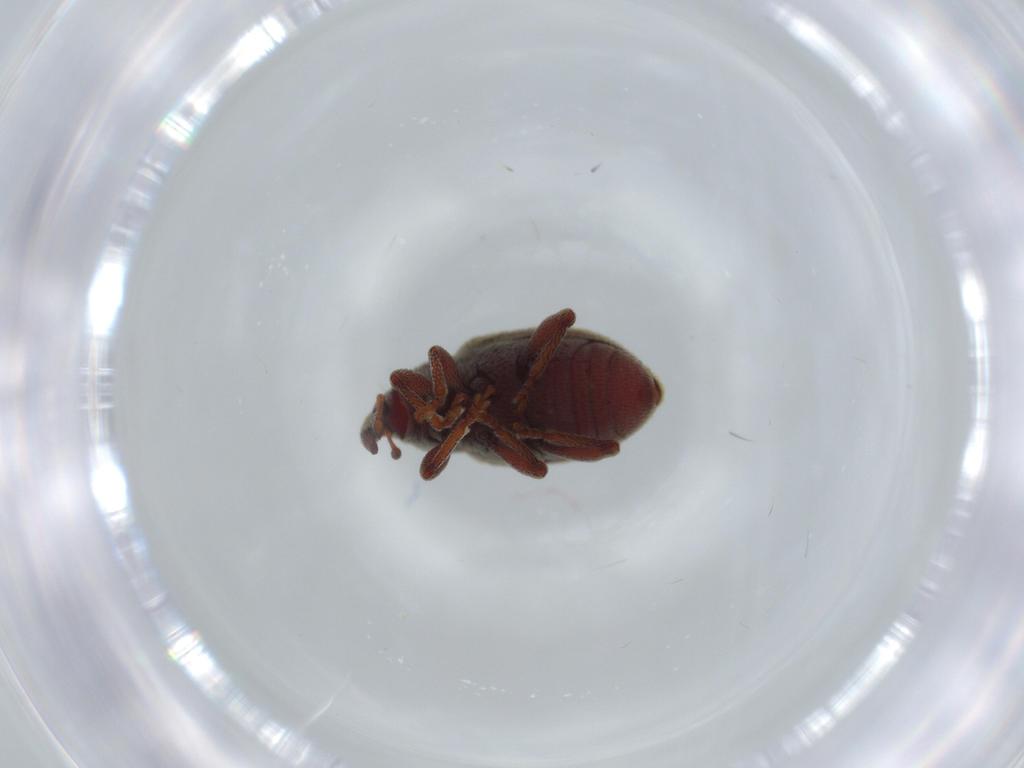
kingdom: Animalia
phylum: Arthropoda
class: Insecta
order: Coleoptera
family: Curculionidae
